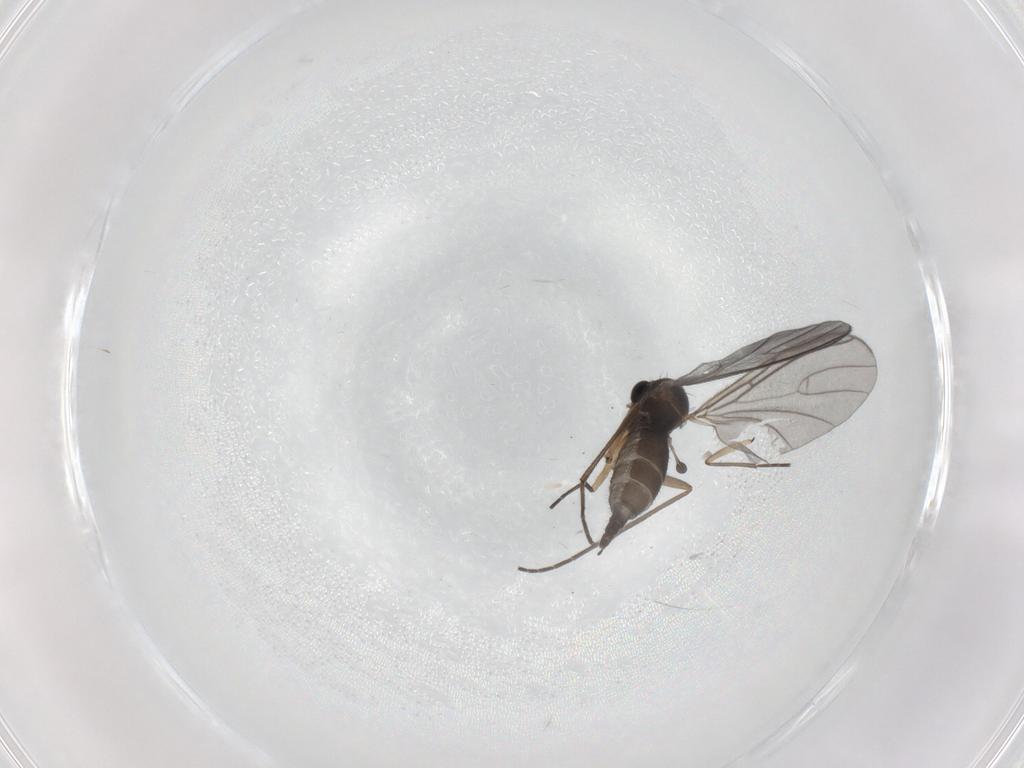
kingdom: Animalia
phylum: Arthropoda
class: Insecta
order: Diptera
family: Sciaridae
